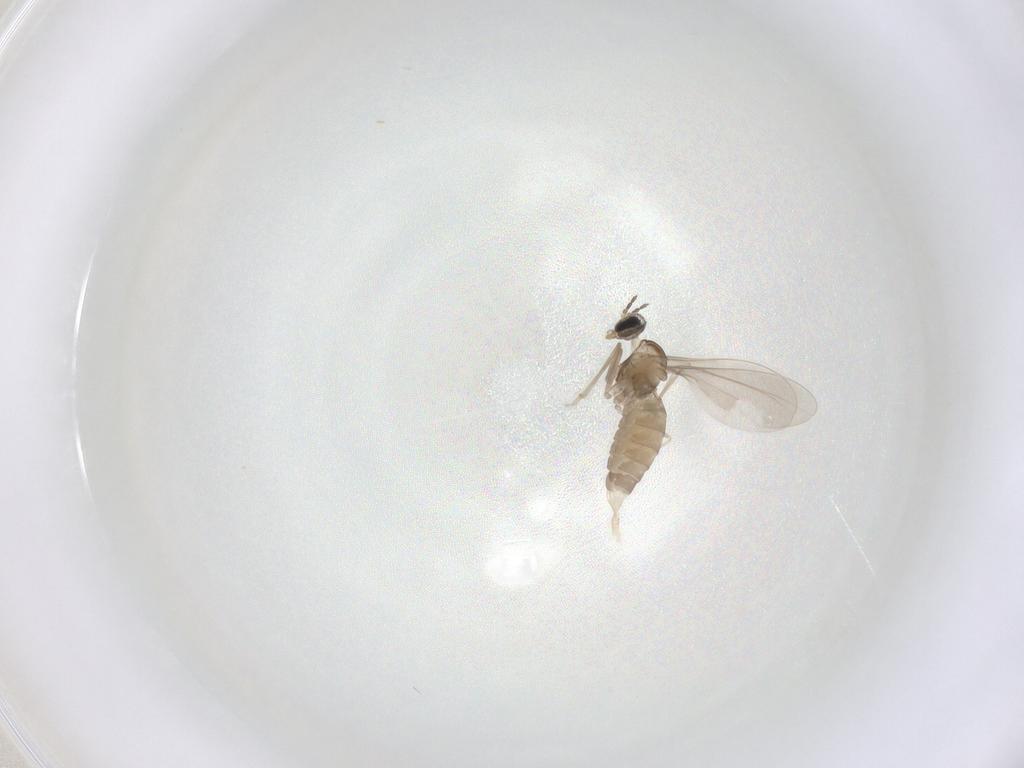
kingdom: Animalia
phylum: Arthropoda
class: Insecta
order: Diptera
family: Cecidomyiidae
